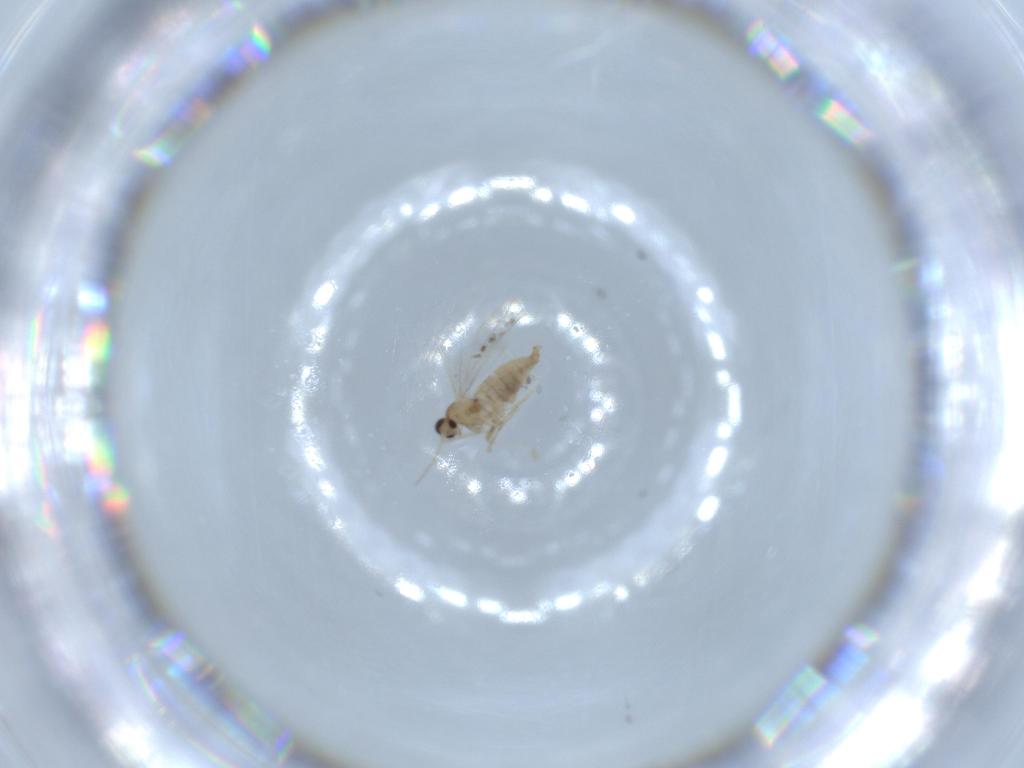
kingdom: Animalia
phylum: Arthropoda
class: Insecta
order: Diptera
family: Cecidomyiidae
